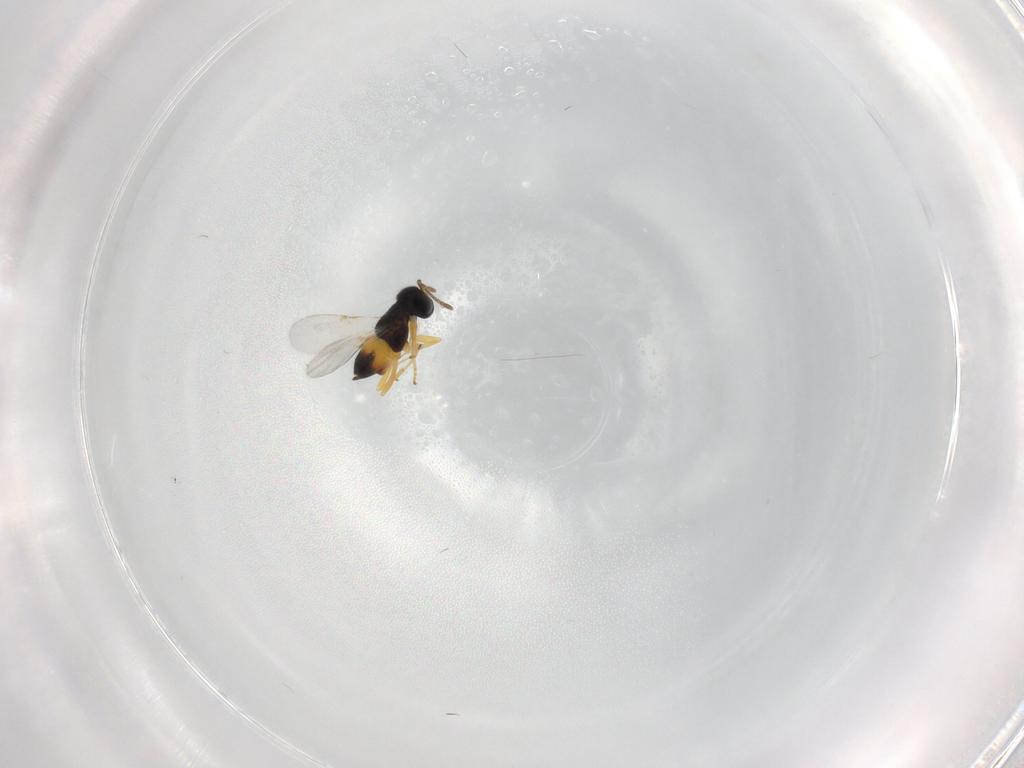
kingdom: Animalia
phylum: Arthropoda
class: Insecta
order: Hymenoptera
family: Encyrtidae
